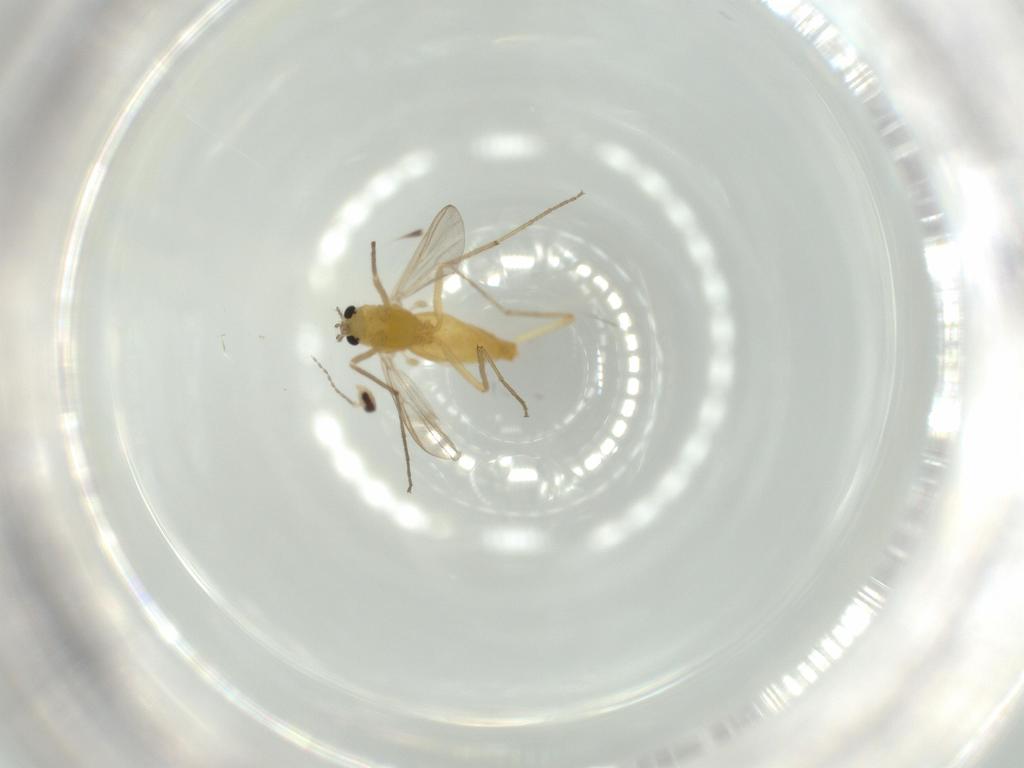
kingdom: Animalia
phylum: Arthropoda
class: Insecta
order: Diptera
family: Chironomidae
